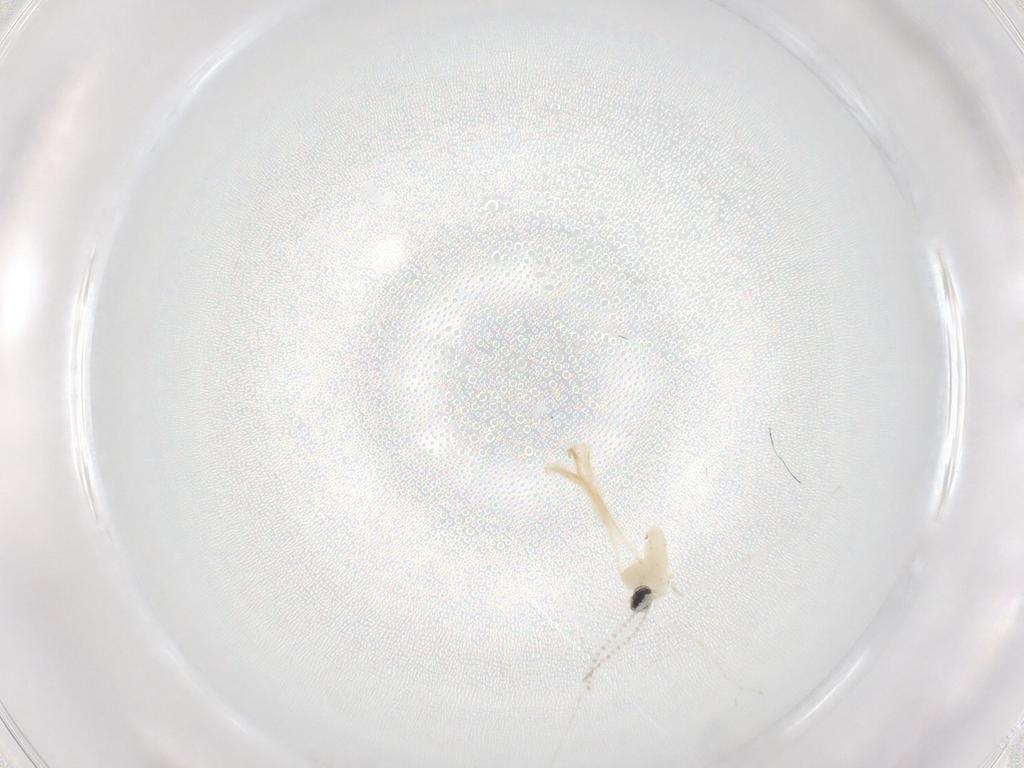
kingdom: Animalia
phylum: Arthropoda
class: Insecta
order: Diptera
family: Cecidomyiidae
